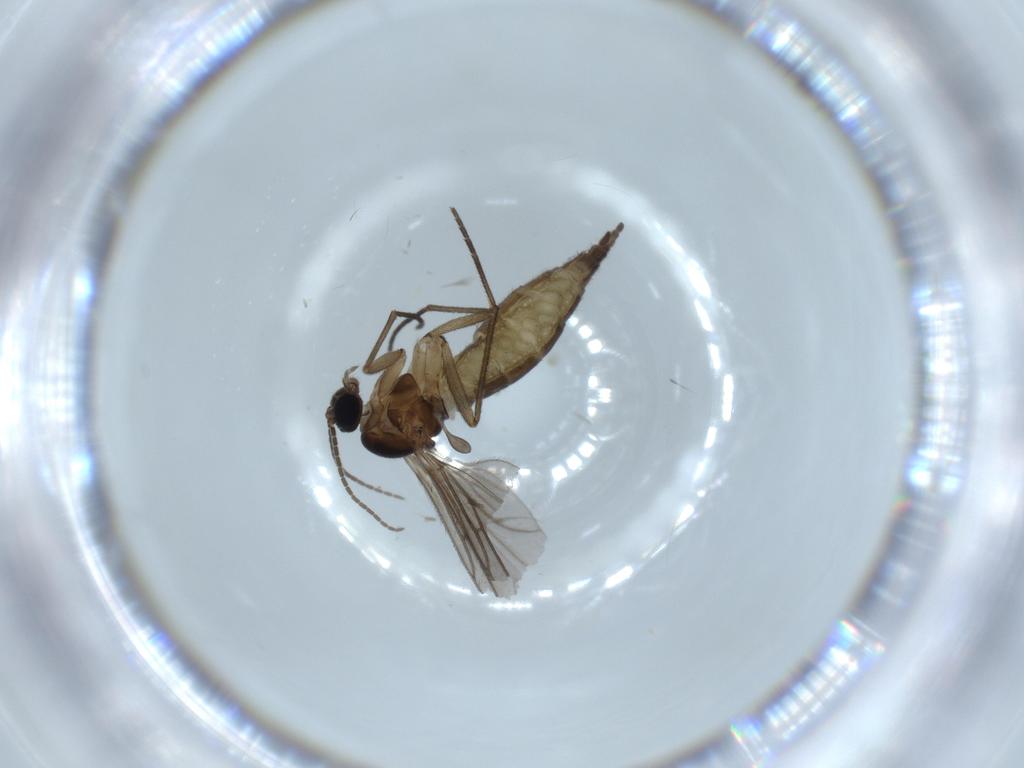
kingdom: Animalia
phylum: Arthropoda
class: Insecta
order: Diptera
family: Sciaridae
